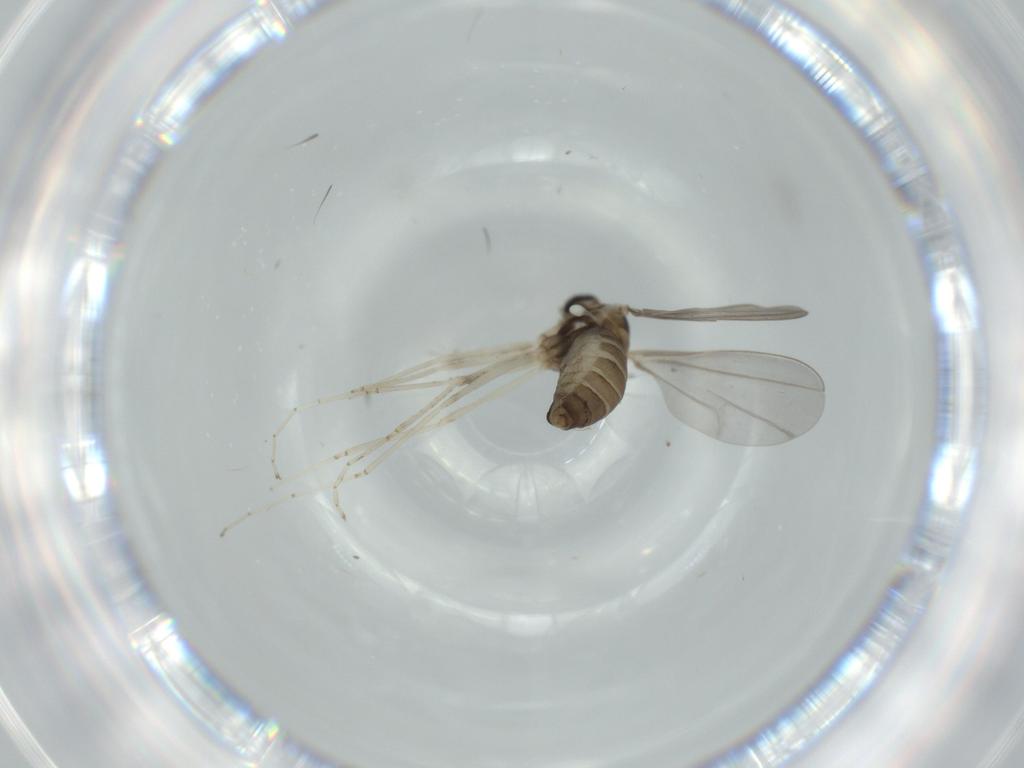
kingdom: Animalia
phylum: Arthropoda
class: Insecta
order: Diptera
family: Cecidomyiidae
